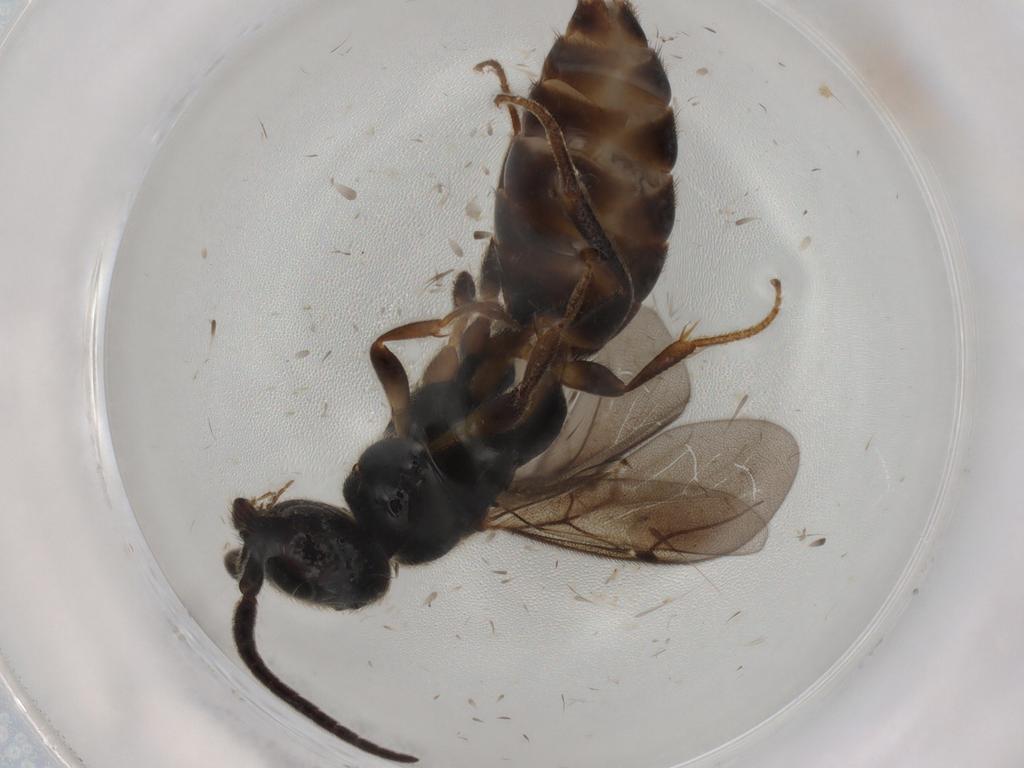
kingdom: Animalia
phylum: Arthropoda
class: Insecta
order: Hymenoptera
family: Bethylidae
